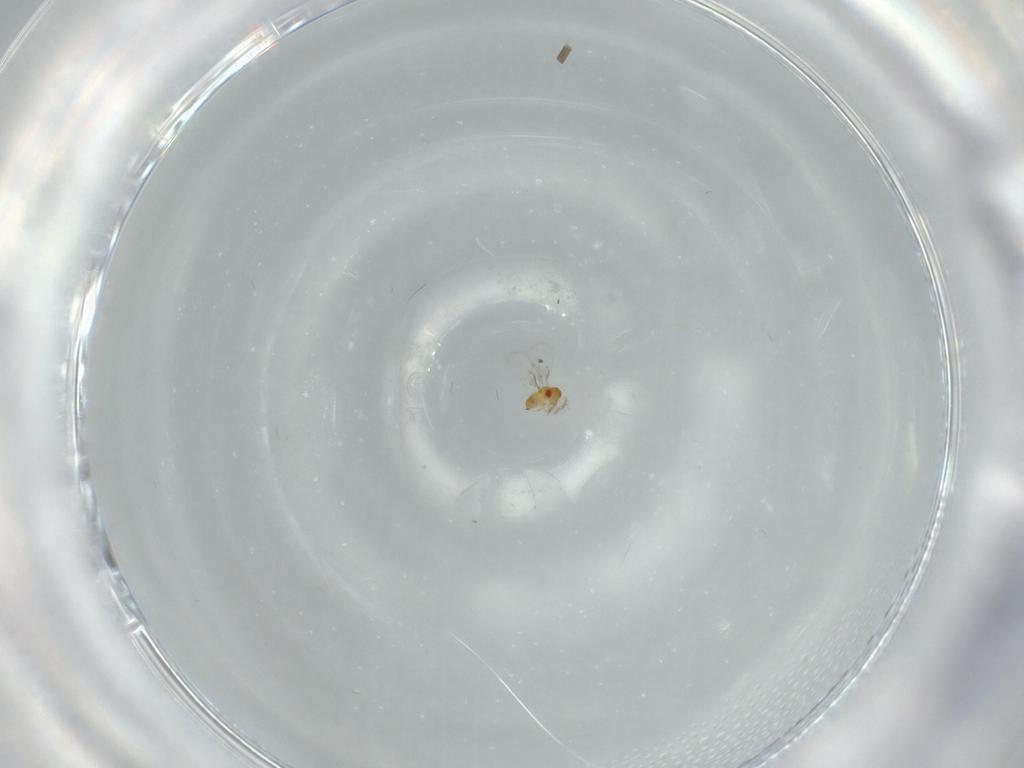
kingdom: Animalia
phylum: Arthropoda
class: Insecta
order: Hymenoptera
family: Trichogrammatidae
